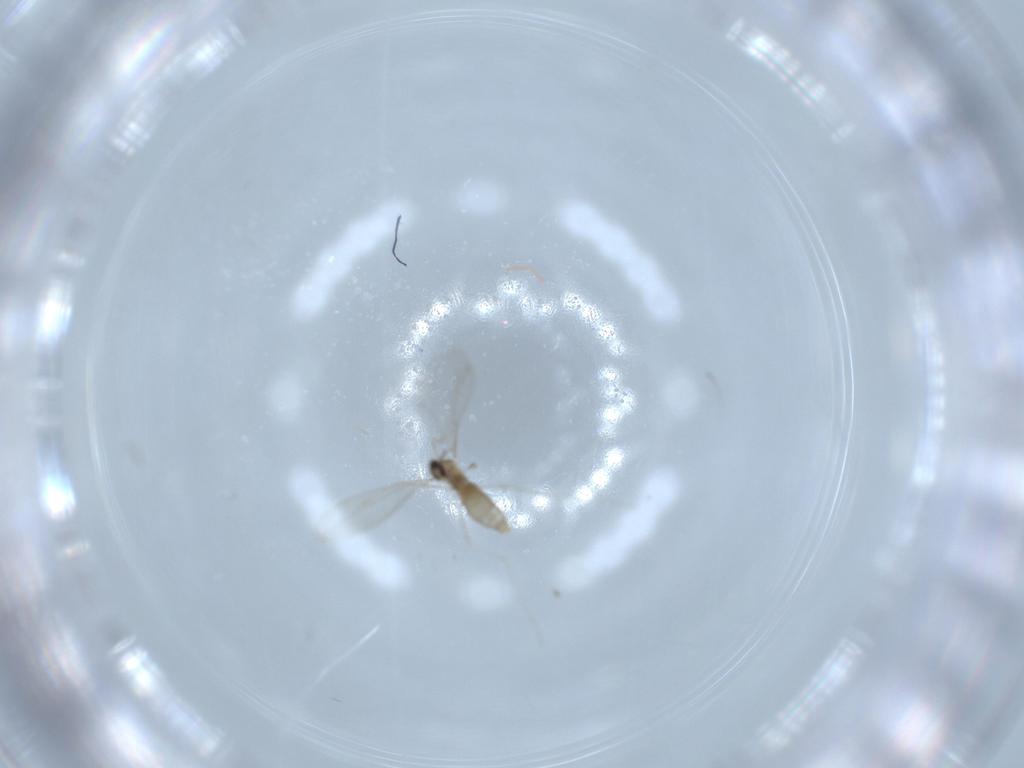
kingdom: Animalia
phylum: Arthropoda
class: Insecta
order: Diptera
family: Cecidomyiidae
